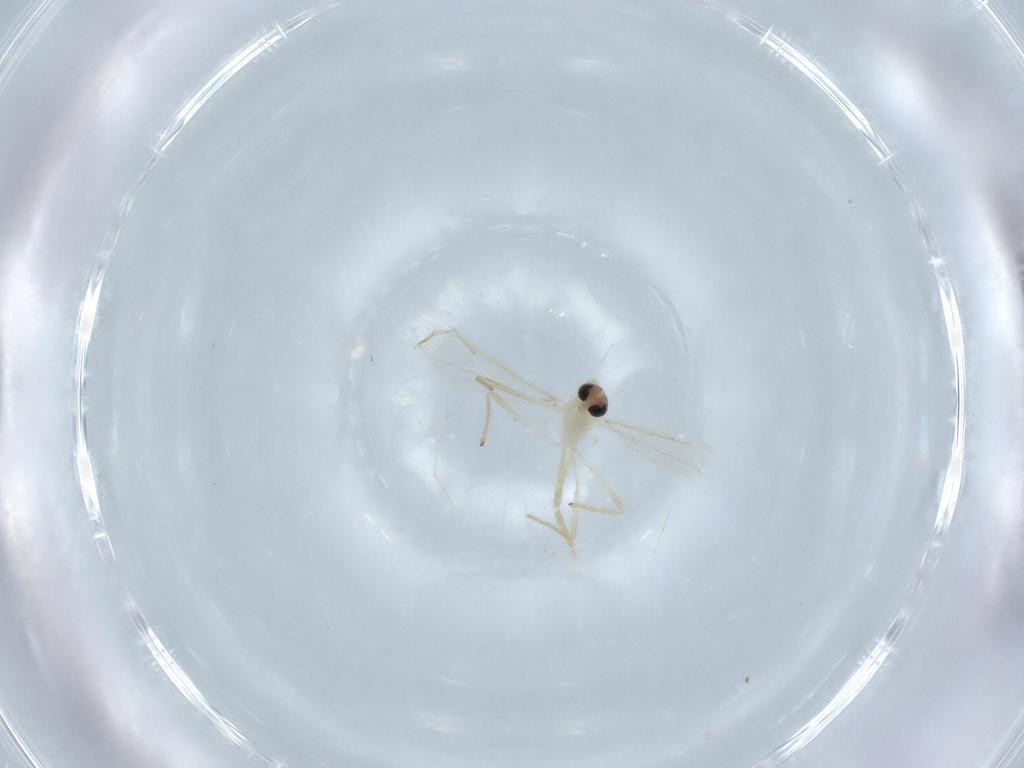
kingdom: Animalia
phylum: Arthropoda
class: Insecta
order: Diptera
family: Chironomidae
